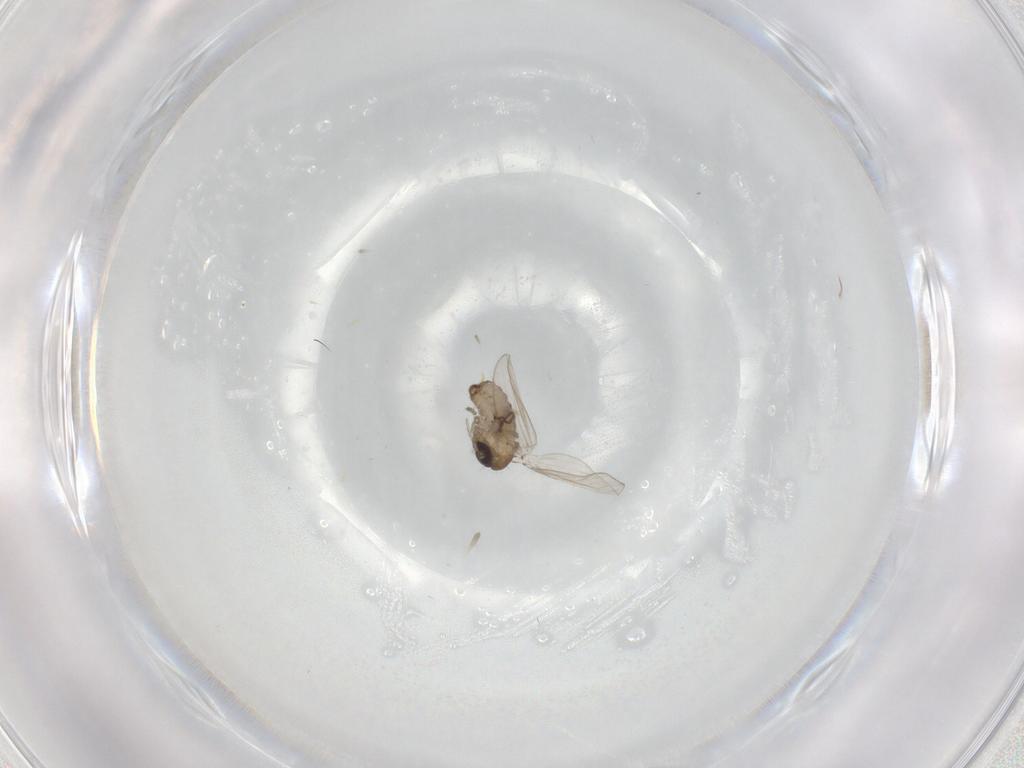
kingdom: Animalia
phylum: Arthropoda
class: Insecta
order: Diptera
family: Psychodidae
